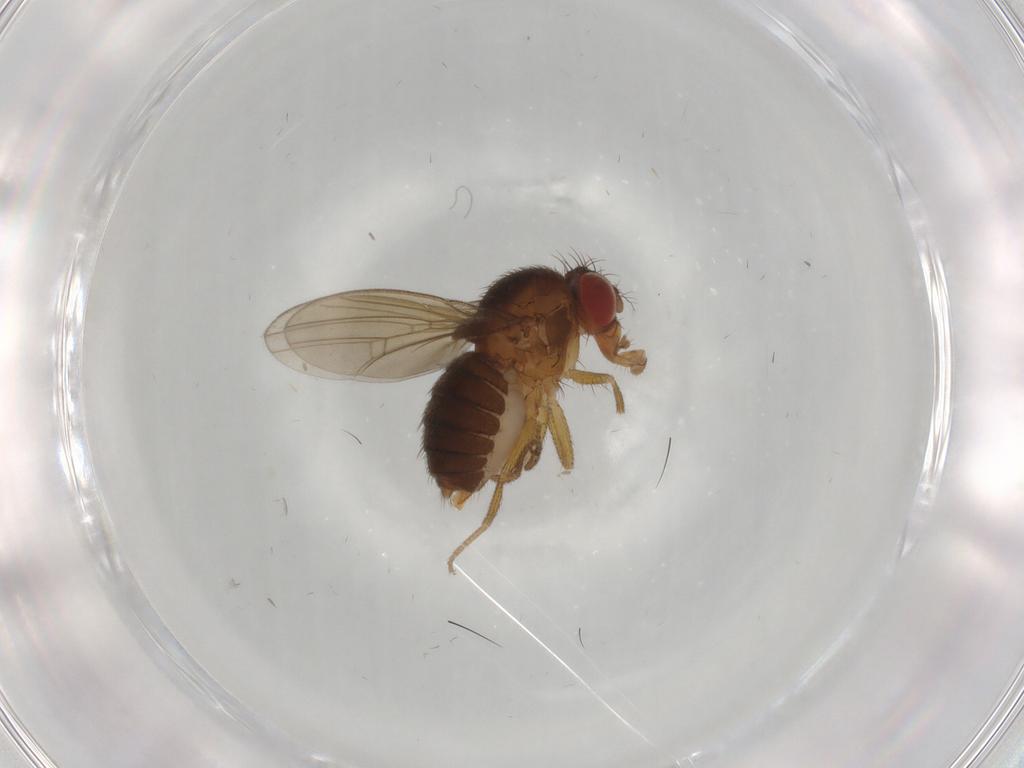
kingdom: Animalia
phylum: Arthropoda
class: Insecta
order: Diptera
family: Drosophilidae
